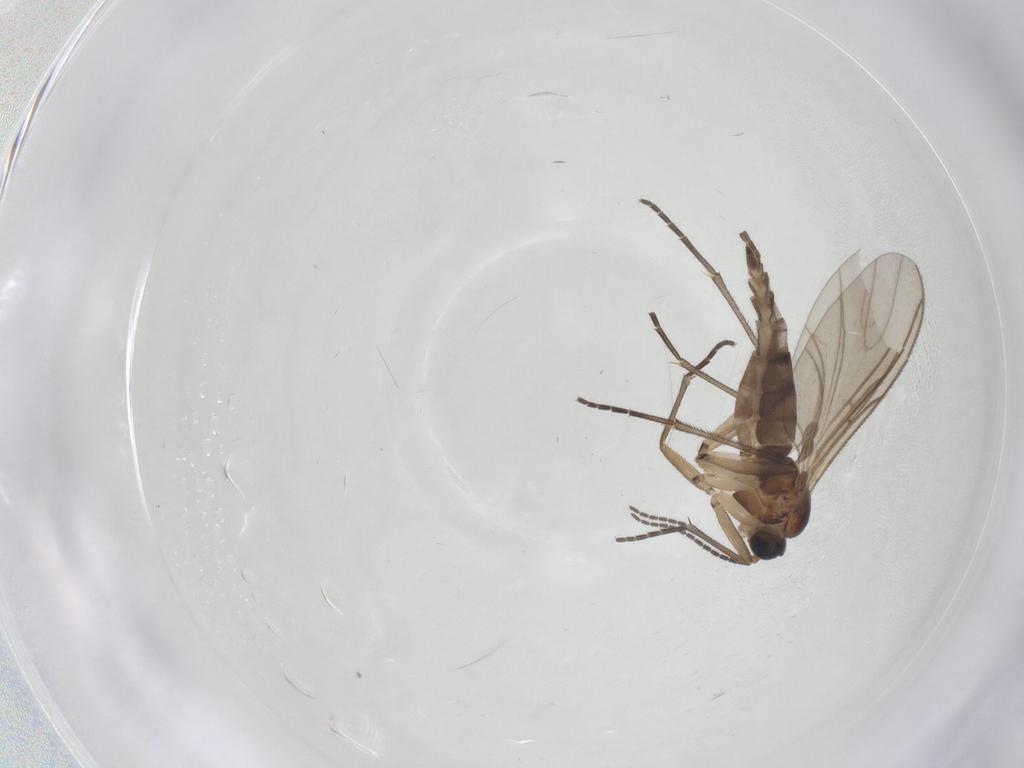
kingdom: Animalia
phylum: Arthropoda
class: Insecta
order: Diptera
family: Sciaridae
